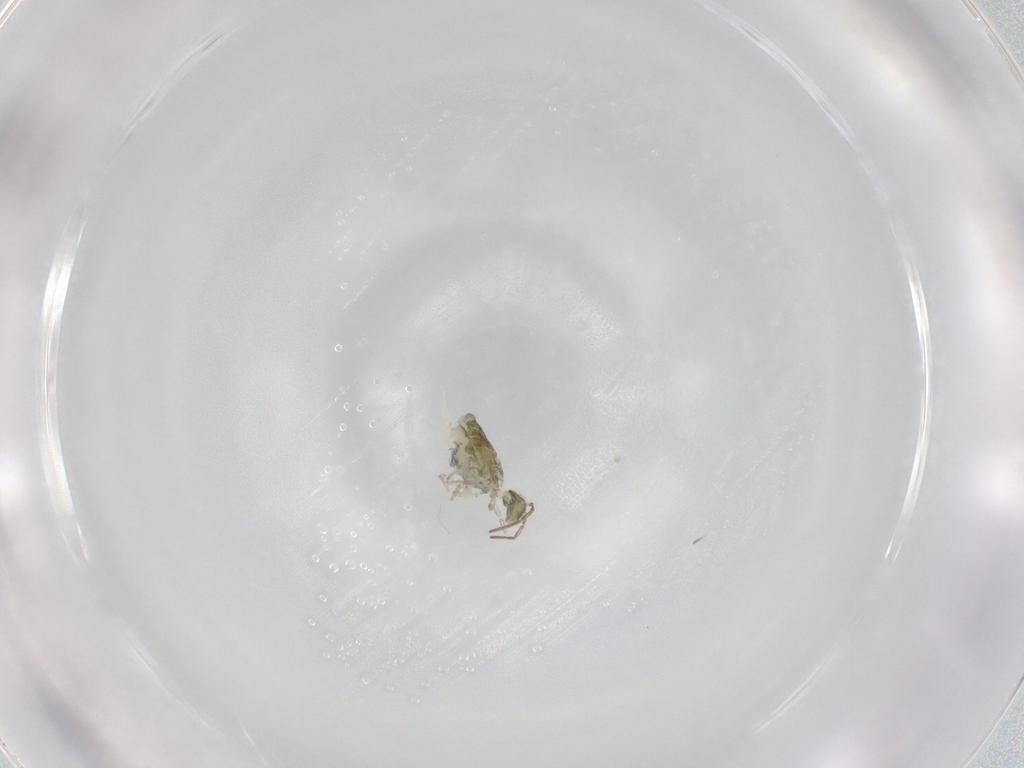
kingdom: Animalia
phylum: Arthropoda
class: Collembola
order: Symphypleona
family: Katiannidae
